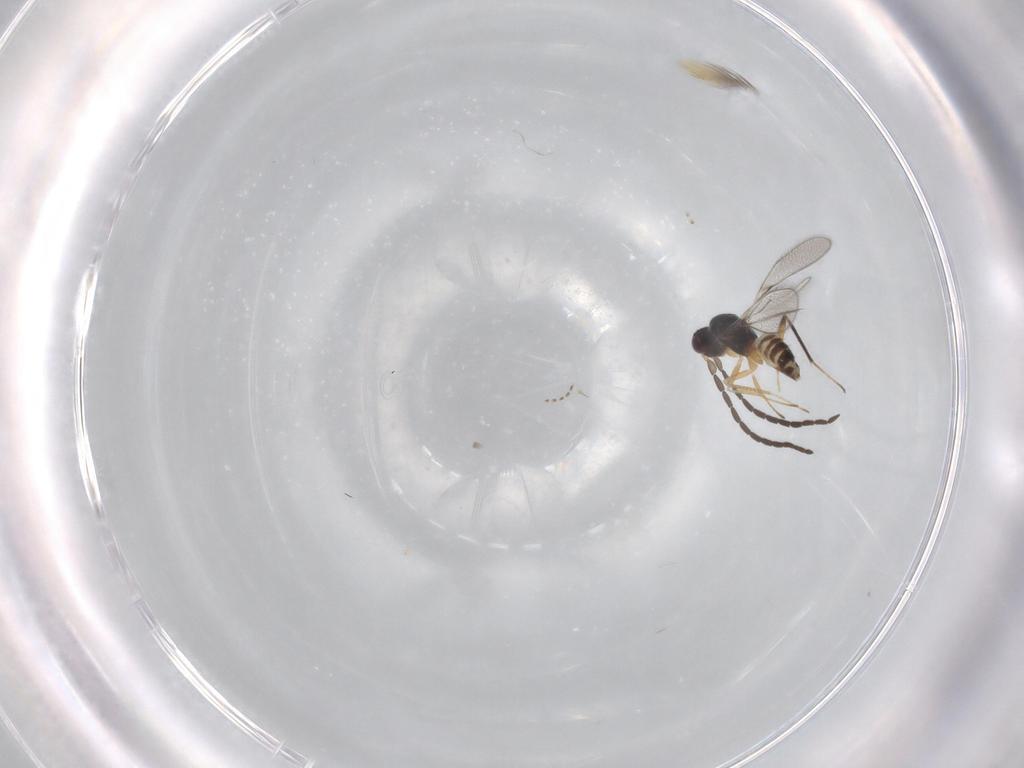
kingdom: Animalia
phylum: Arthropoda
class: Insecta
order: Hymenoptera
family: Mymaridae
